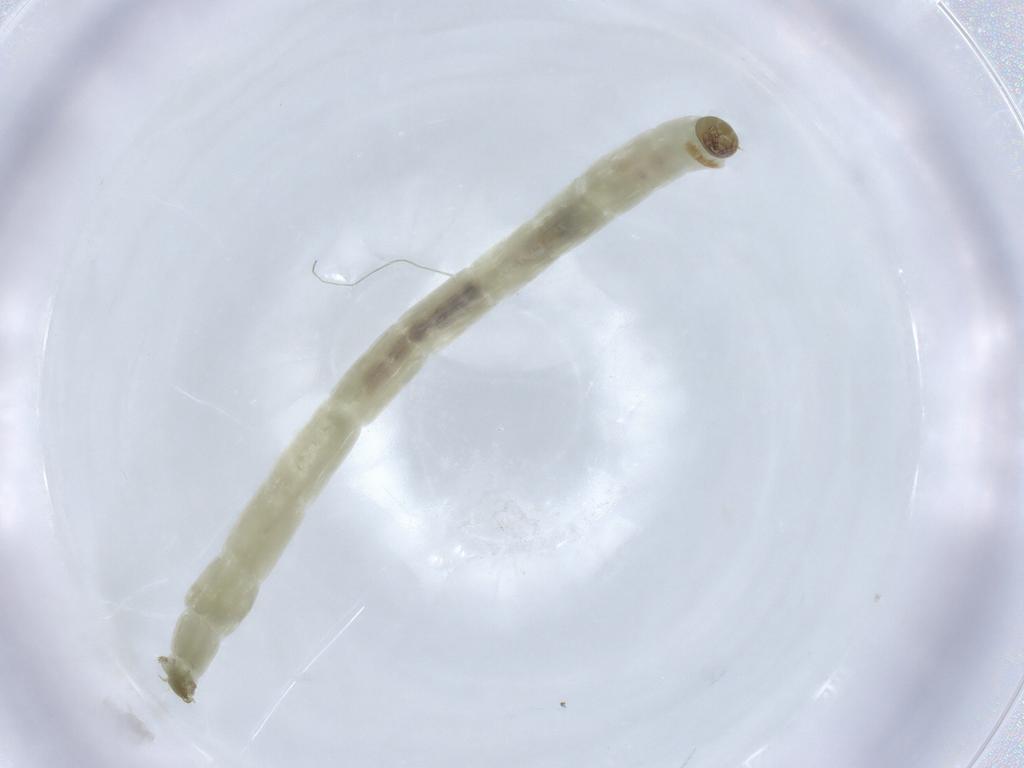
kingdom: Animalia
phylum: Arthropoda
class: Insecta
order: Diptera
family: Chironomidae
